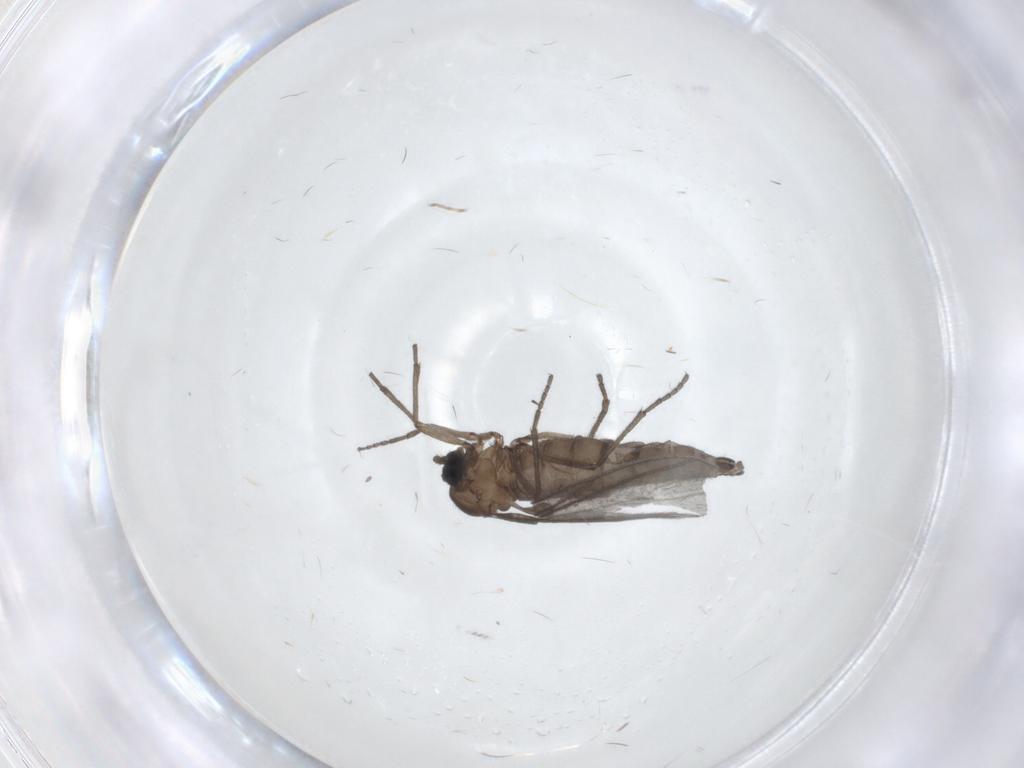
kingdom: Animalia
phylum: Arthropoda
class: Insecta
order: Diptera
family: Sciaridae
